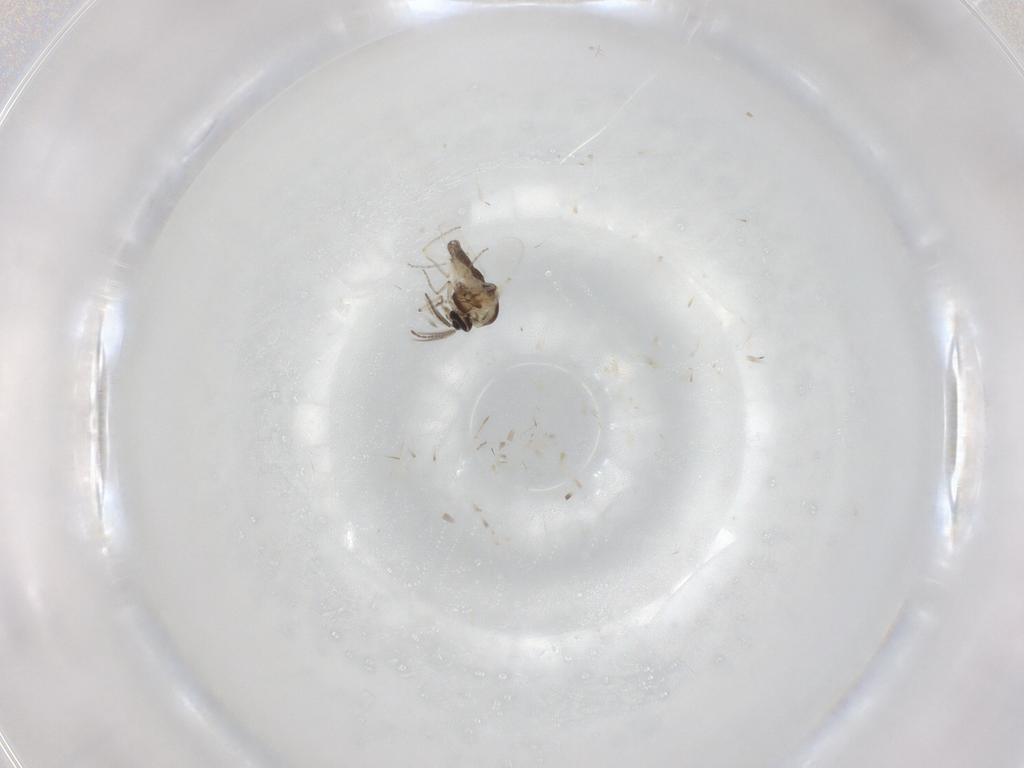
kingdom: Animalia
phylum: Arthropoda
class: Insecta
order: Diptera
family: Ceratopogonidae
